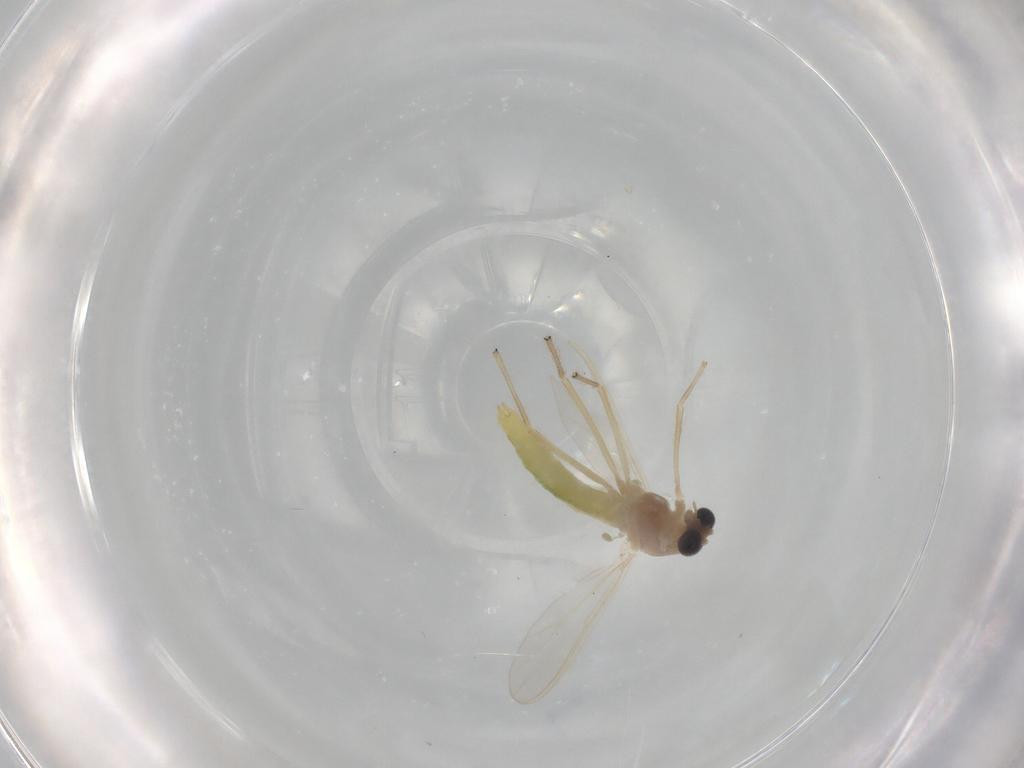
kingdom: Animalia
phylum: Arthropoda
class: Insecta
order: Diptera
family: Chironomidae
